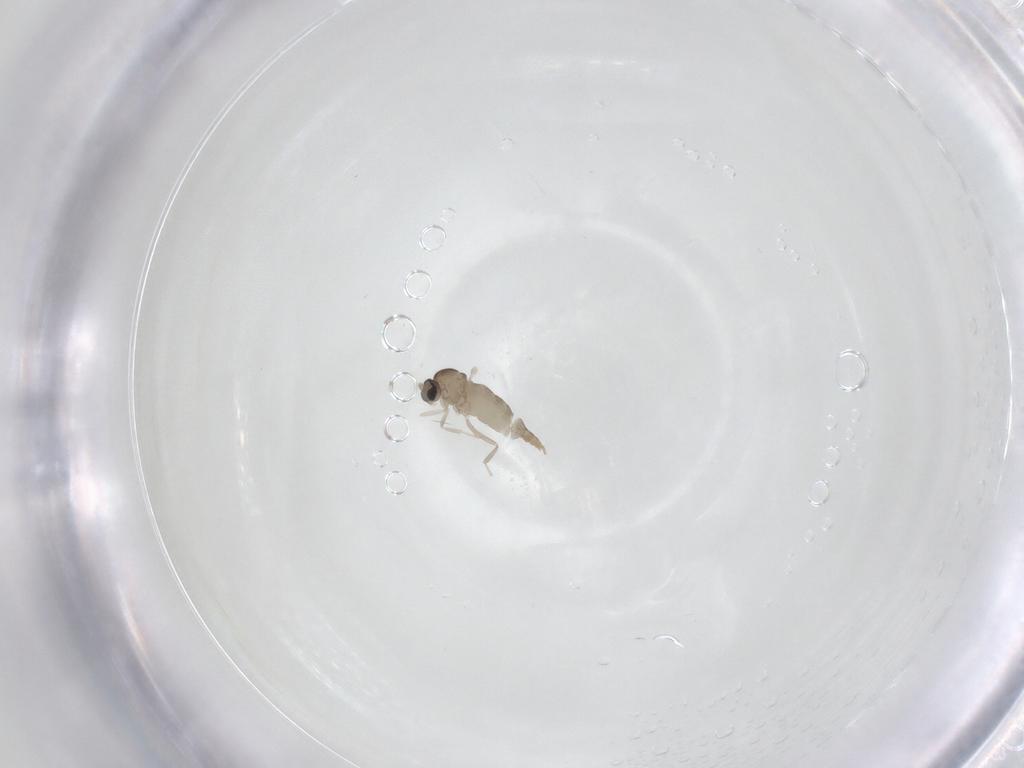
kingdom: Animalia
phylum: Arthropoda
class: Insecta
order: Diptera
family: Cecidomyiidae
